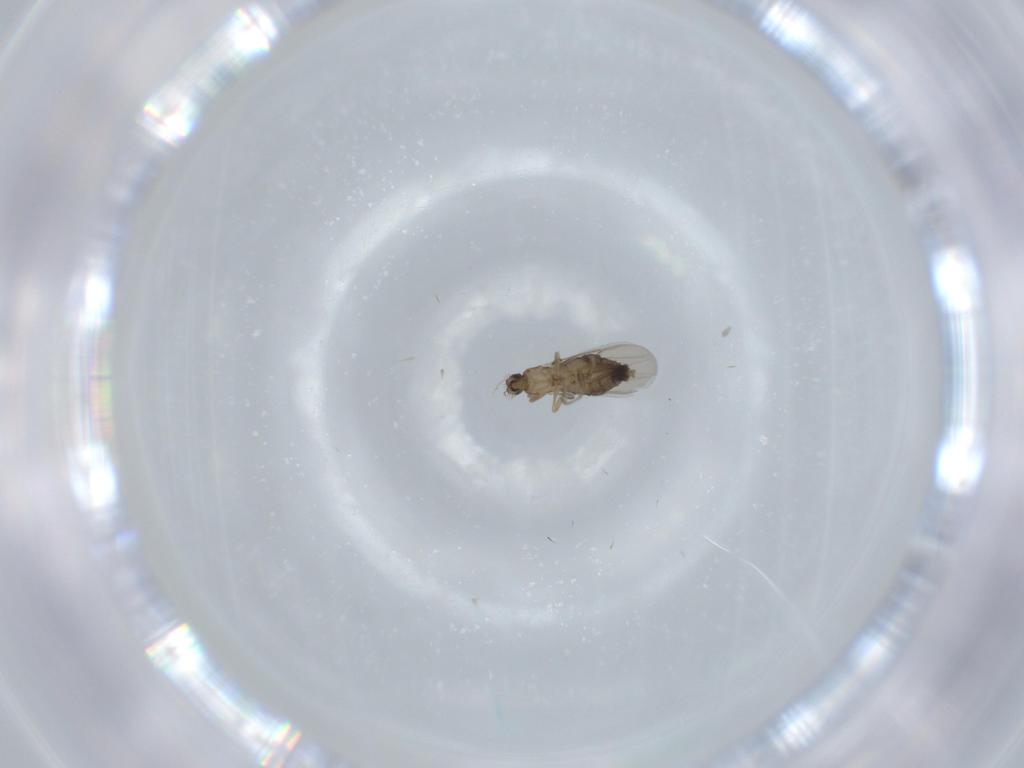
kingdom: Animalia
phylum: Arthropoda
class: Insecta
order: Diptera
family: Phoridae
